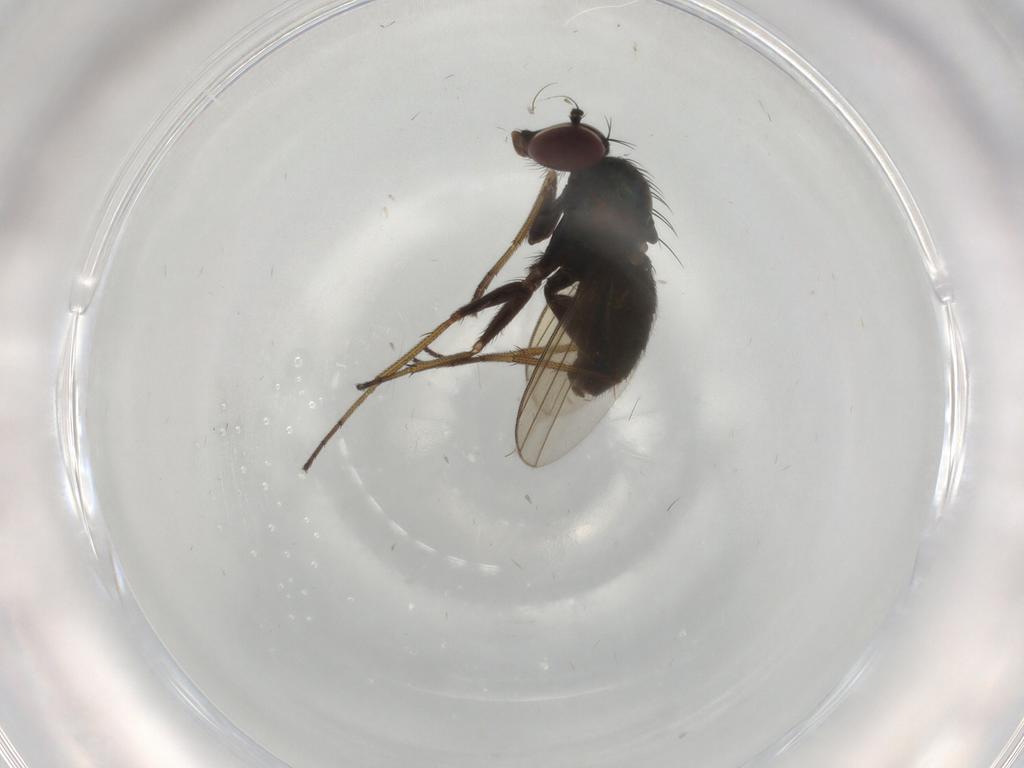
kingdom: Animalia
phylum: Arthropoda
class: Insecta
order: Diptera
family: Dolichopodidae
